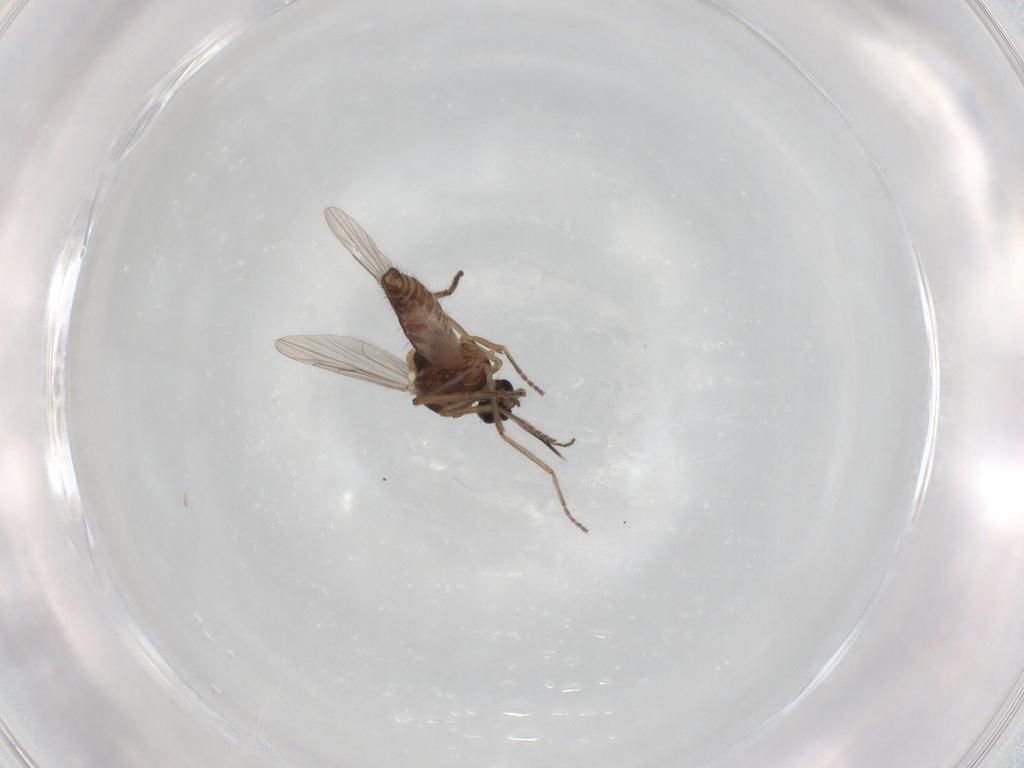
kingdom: Animalia
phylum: Arthropoda
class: Insecta
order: Diptera
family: Ceratopogonidae
